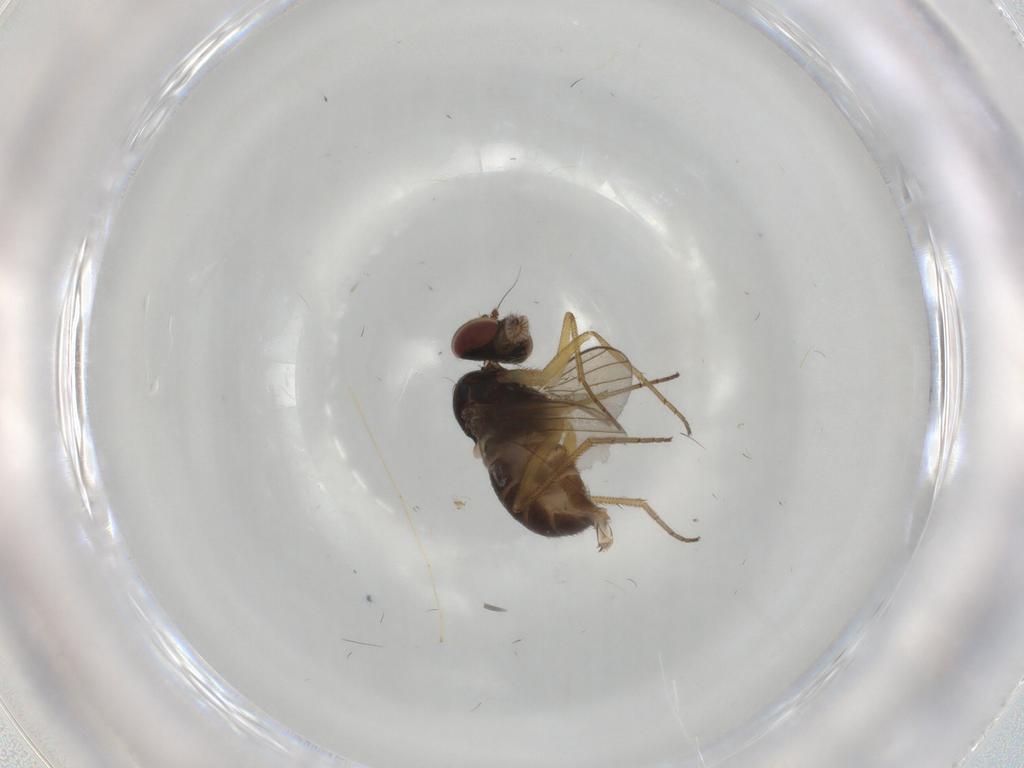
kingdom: Animalia
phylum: Arthropoda
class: Insecta
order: Diptera
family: Dolichopodidae
